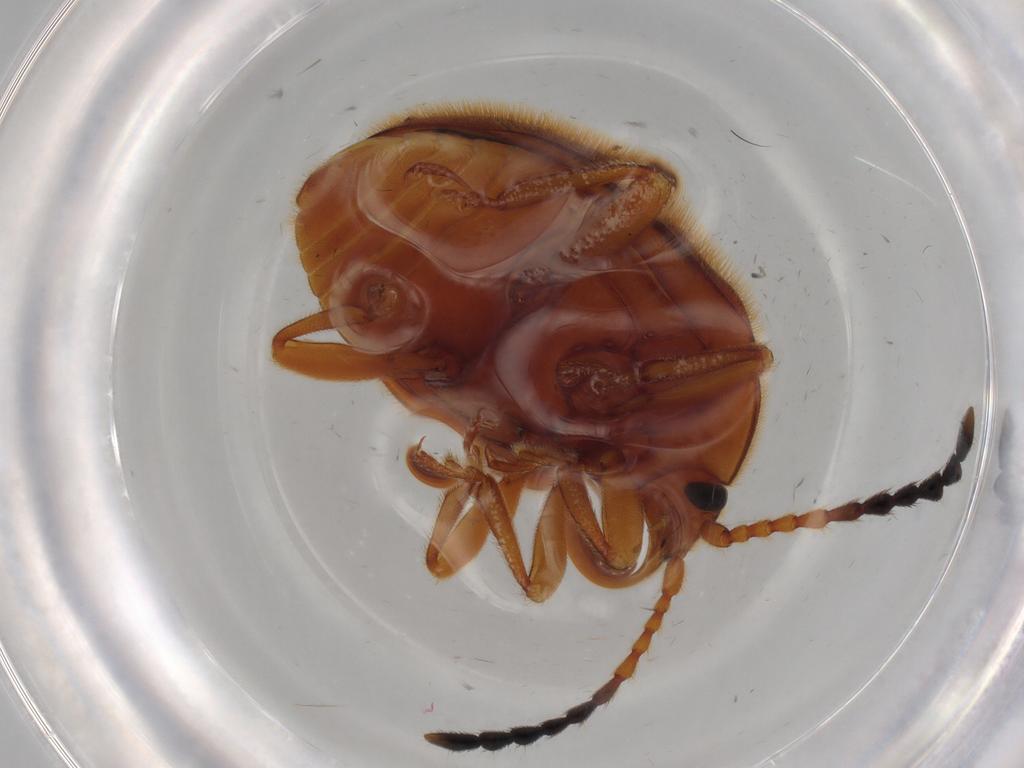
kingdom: Animalia
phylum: Arthropoda
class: Insecta
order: Coleoptera
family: Endomychidae
